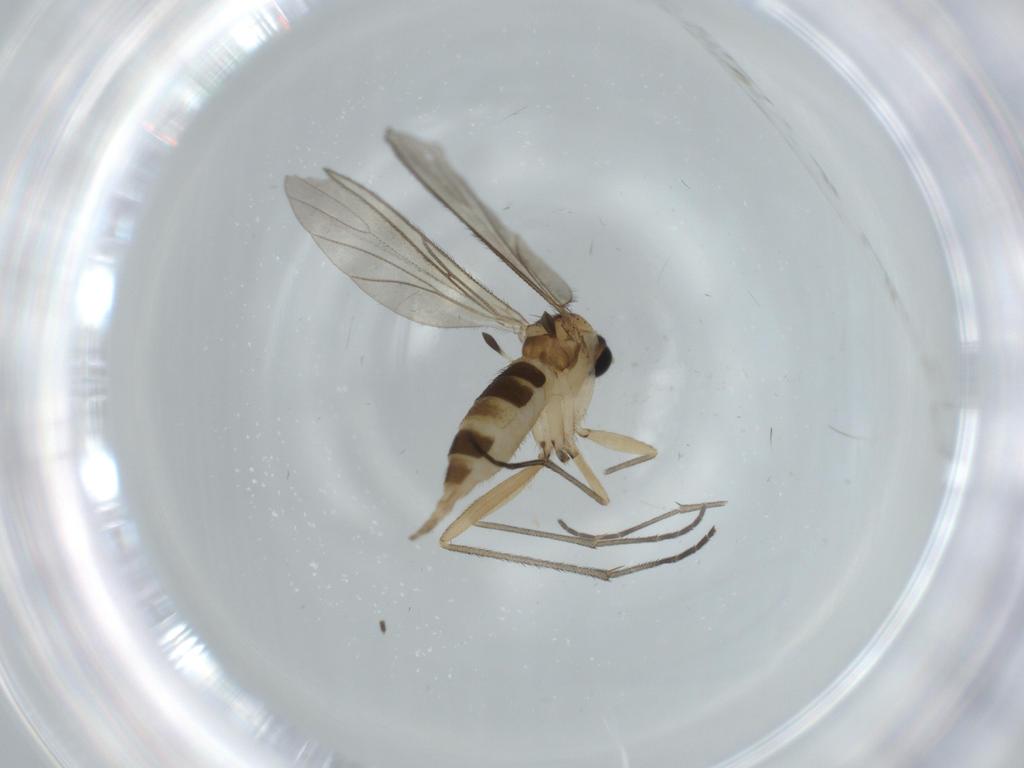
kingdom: Animalia
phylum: Arthropoda
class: Insecta
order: Diptera
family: Sciaridae
